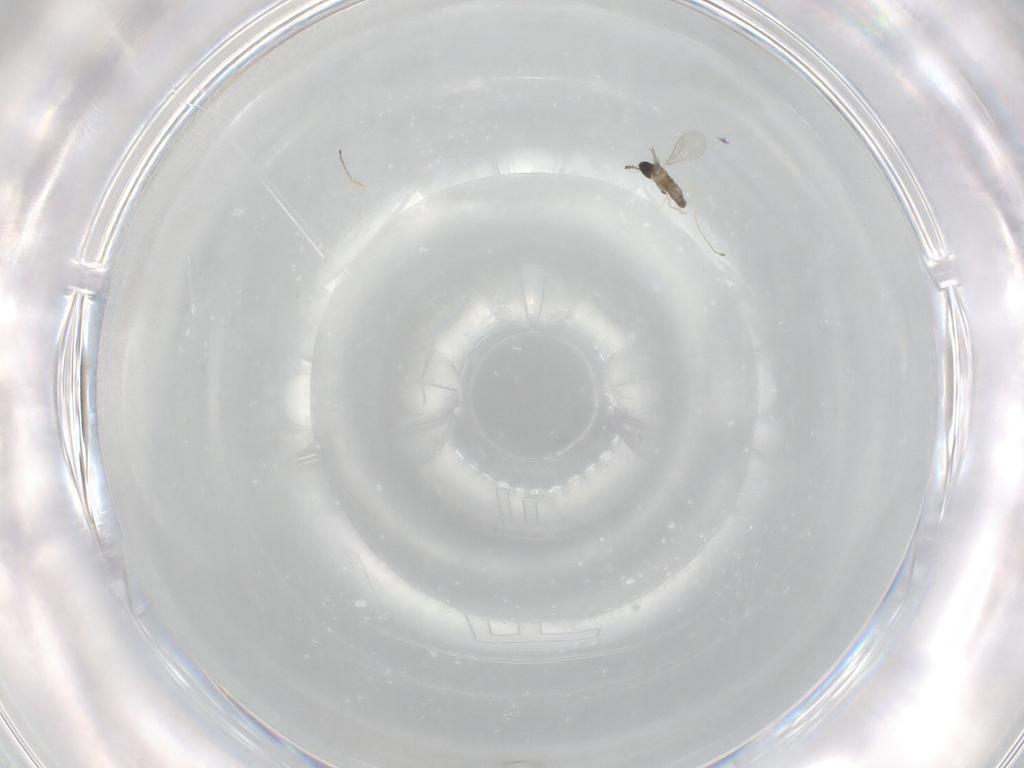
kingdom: Animalia
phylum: Arthropoda
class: Insecta
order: Diptera
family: Cecidomyiidae
